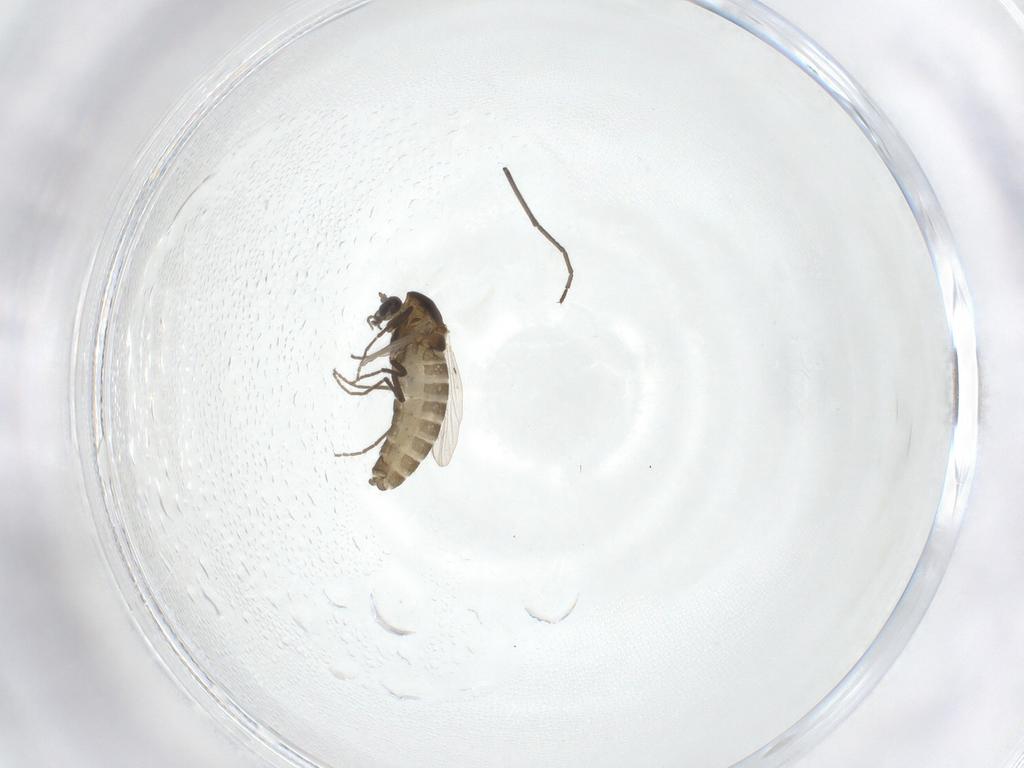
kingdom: Animalia
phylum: Arthropoda
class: Insecta
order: Diptera
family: Chironomidae
